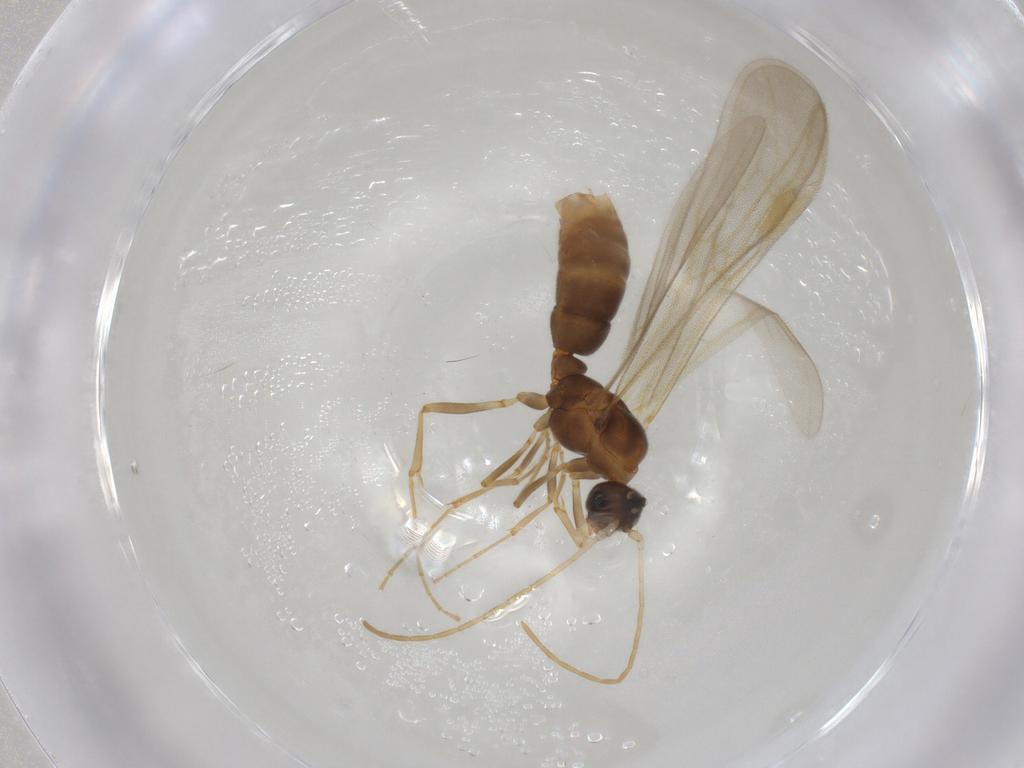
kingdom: Animalia
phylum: Arthropoda
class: Insecta
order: Hymenoptera
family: Formicidae
